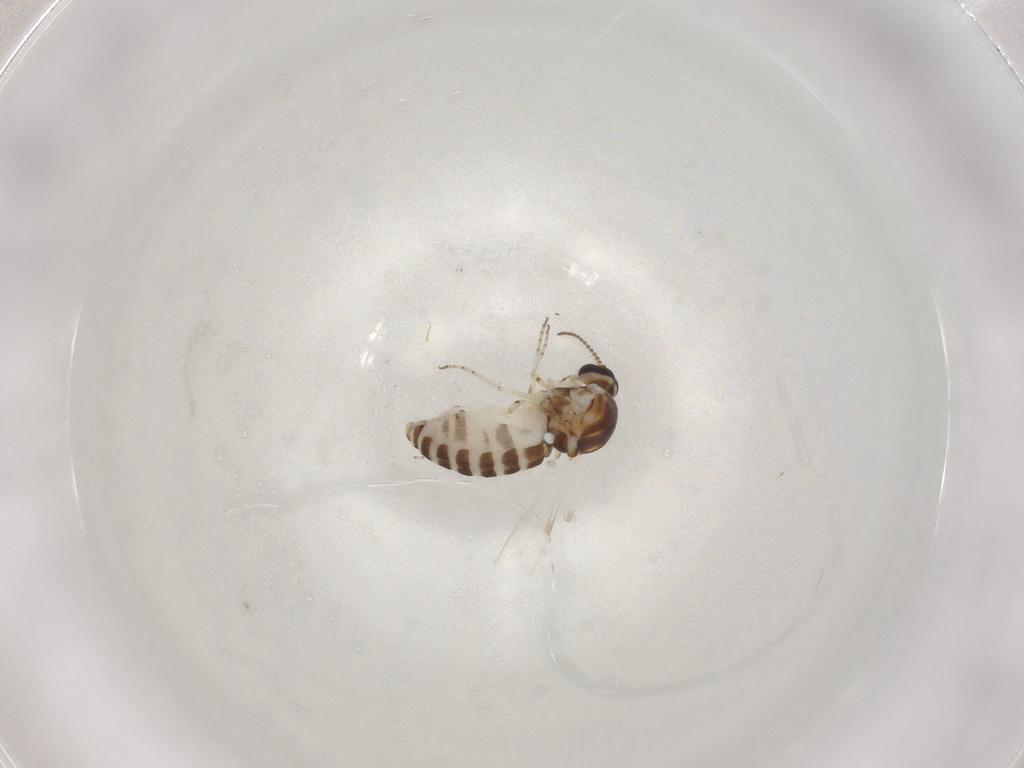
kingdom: Animalia
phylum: Arthropoda
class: Insecta
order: Diptera
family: Ceratopogonidae
